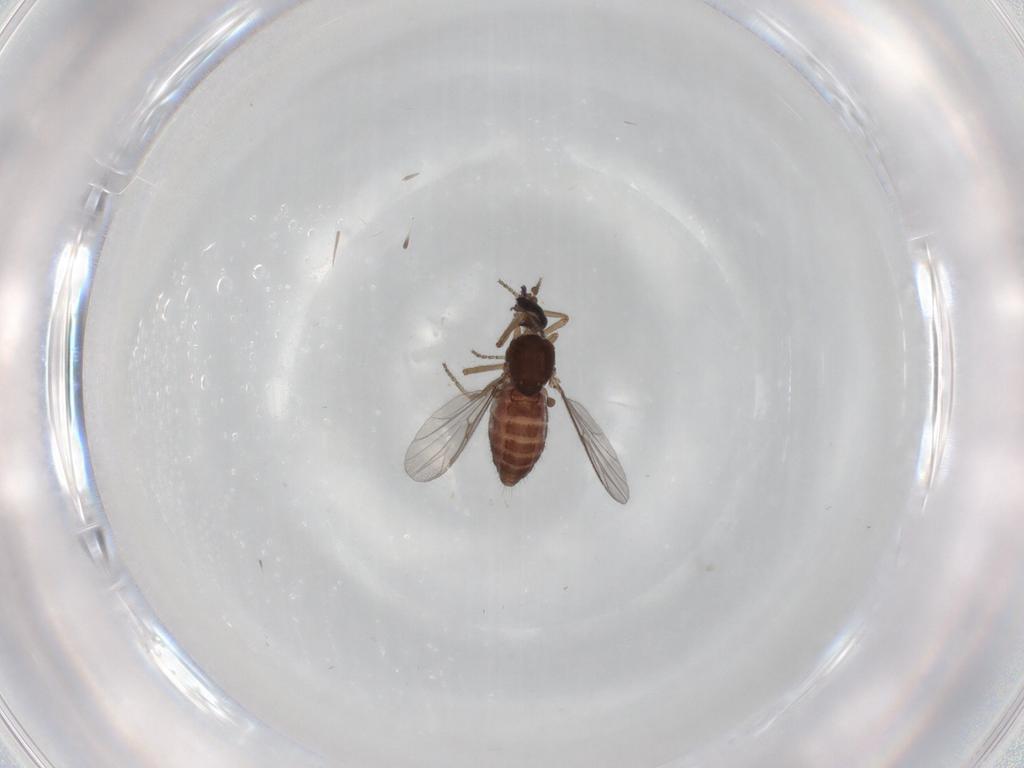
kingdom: Animalia
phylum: Arthropoda
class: Insecta
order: Diptera
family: Ceratopogonidae
